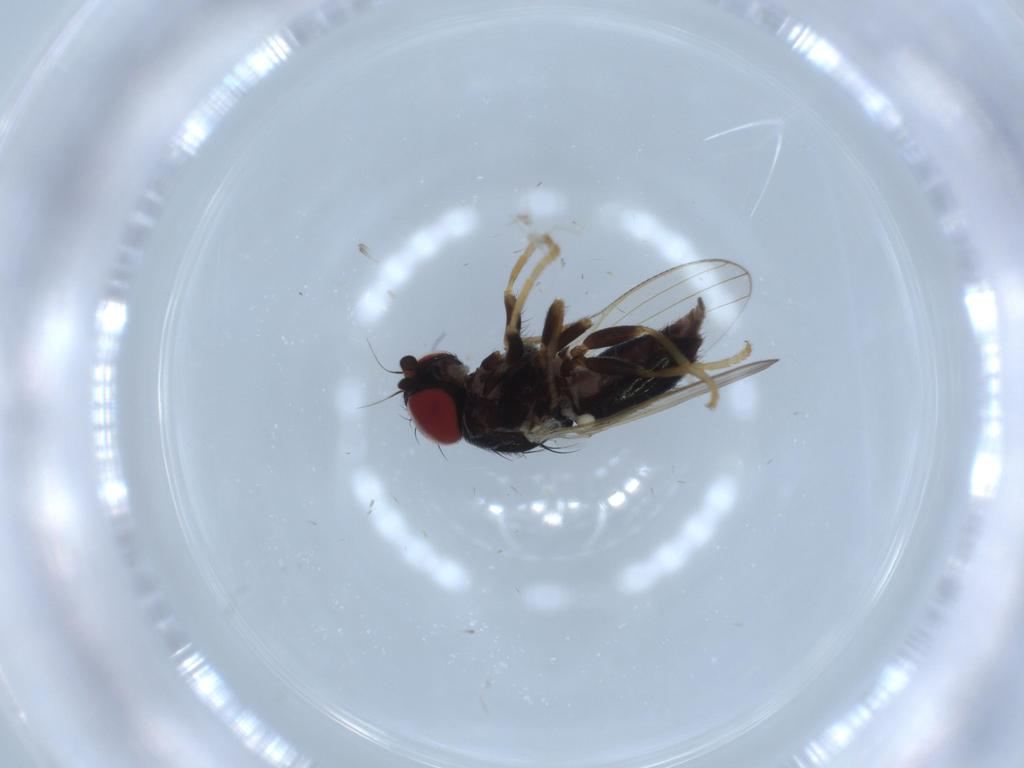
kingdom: Animalia
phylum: Arthropoda
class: Insecta
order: Diptera
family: Chamaemyiidae
